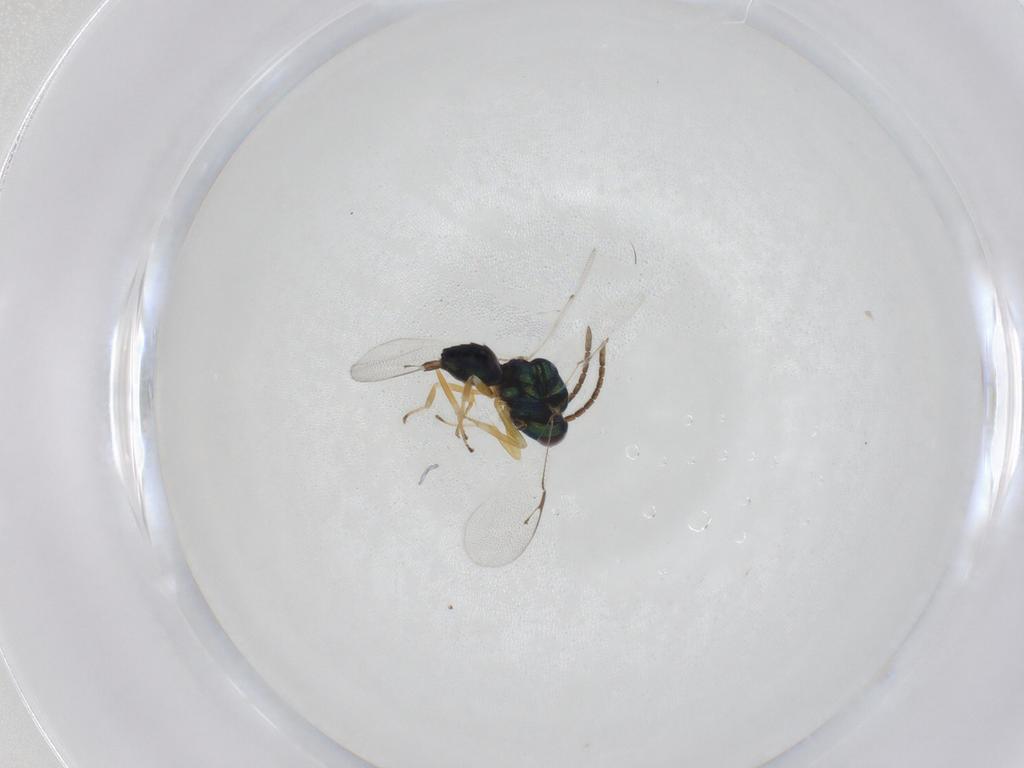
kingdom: Animalia
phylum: Arthropoda
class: Insecta
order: Hymenoptera
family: Pteromalidae
